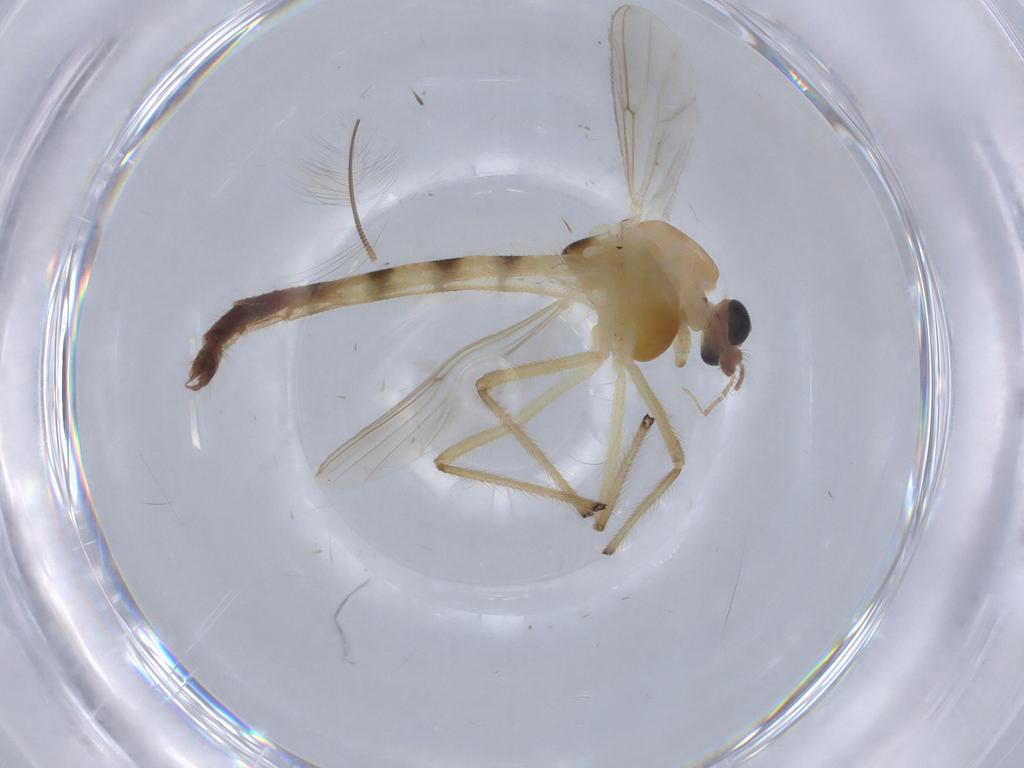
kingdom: Animalia
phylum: Arthropoda
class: Insecta
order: Diptera
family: Chironomidae
